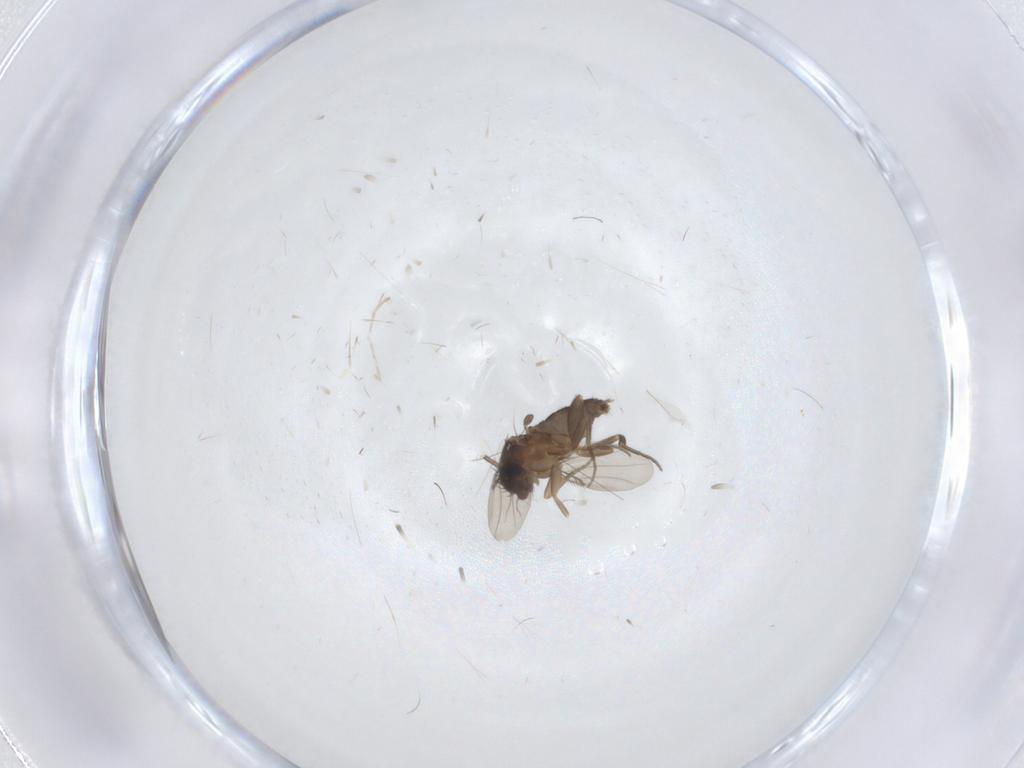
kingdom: Animalia
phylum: Arthropoda
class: Insecta
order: Diptera
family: Phoridae
